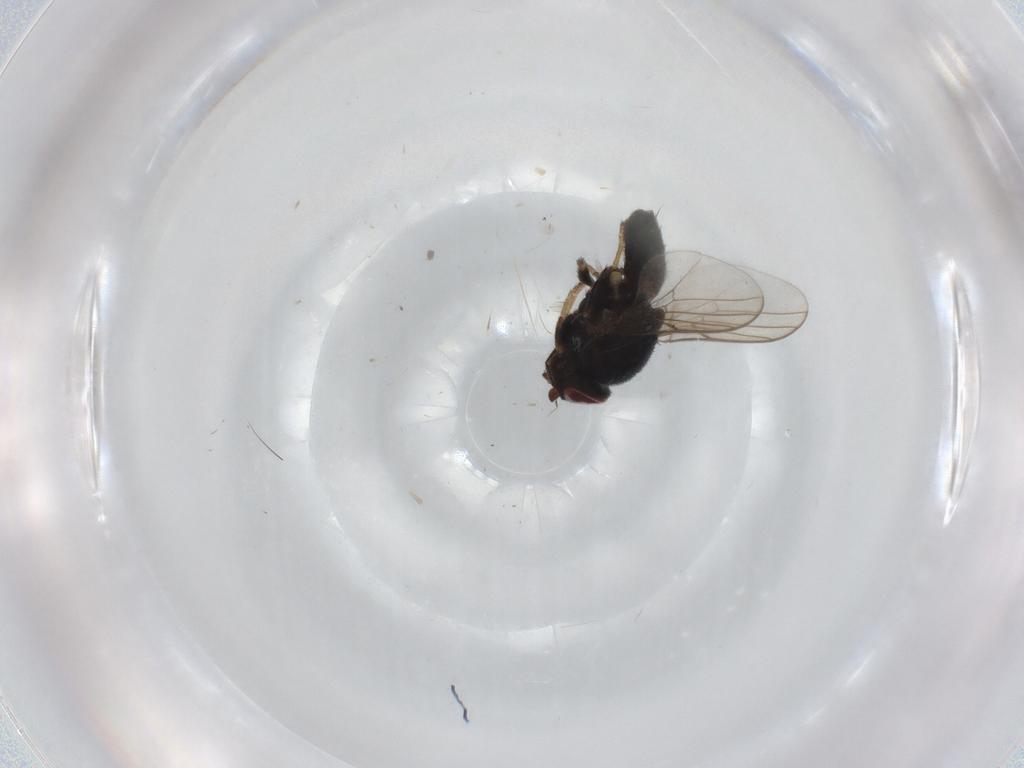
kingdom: Animalia
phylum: Arthropoda
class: Insecta
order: Diptera
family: Chloropidae
